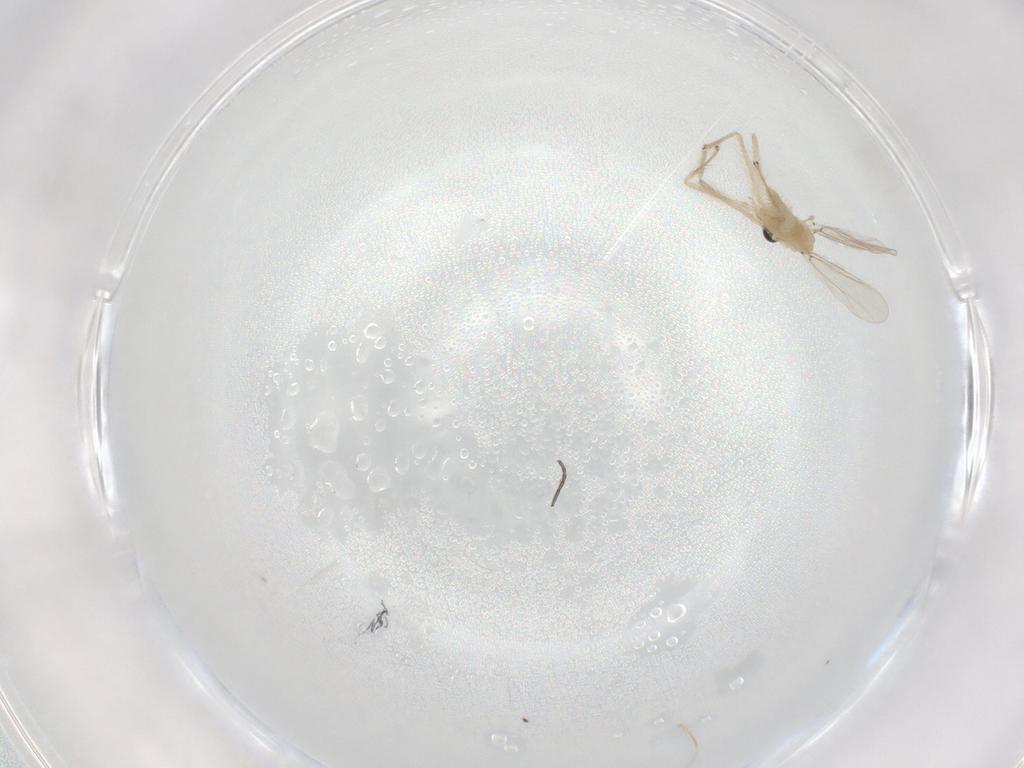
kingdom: Animalia
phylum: Arthropoda
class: Insecta
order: Diptera
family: Chironomidae
